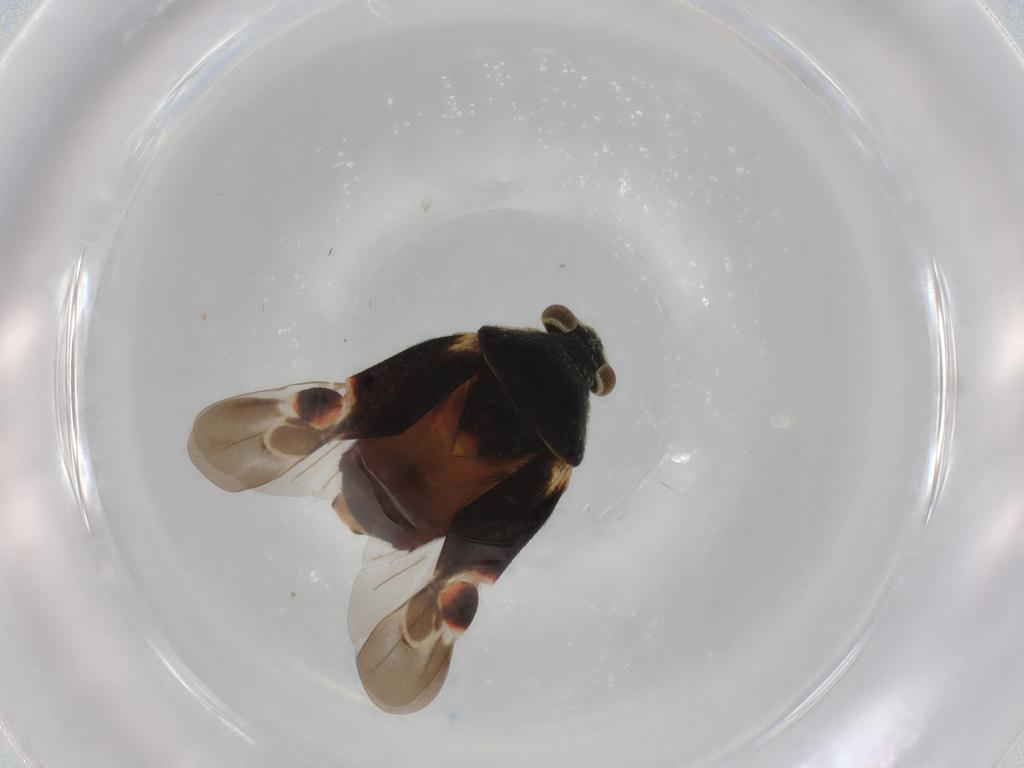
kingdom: Animalia
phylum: Arthropoda
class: Insecta
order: Hemiptera
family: Miridae
